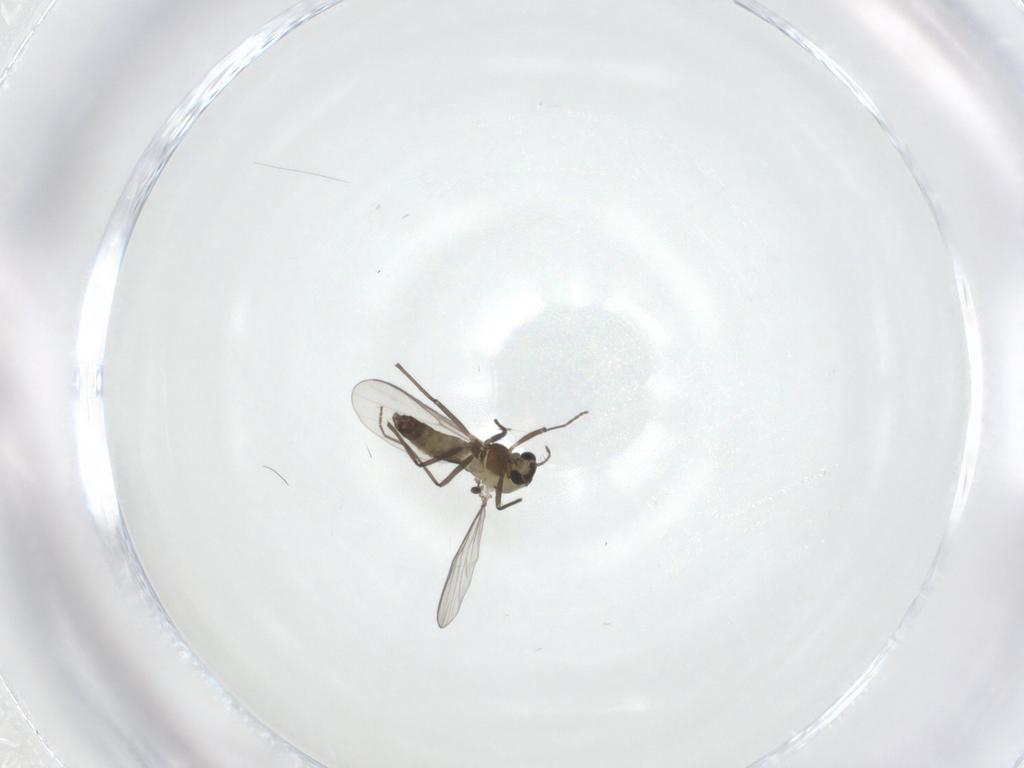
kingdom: Animalia
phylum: Arthropoda
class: Insecta
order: Diptera
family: Chironomidae
